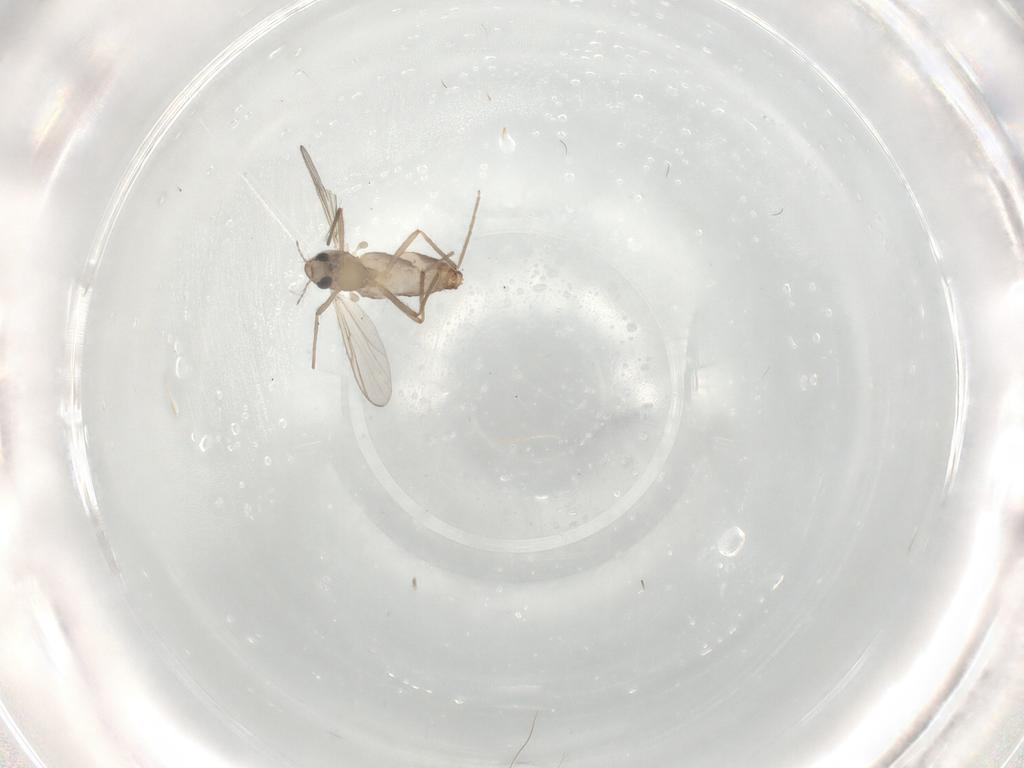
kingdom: Animalia
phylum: Arthropoda
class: Insecta
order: Diptera
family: Chironomidae
